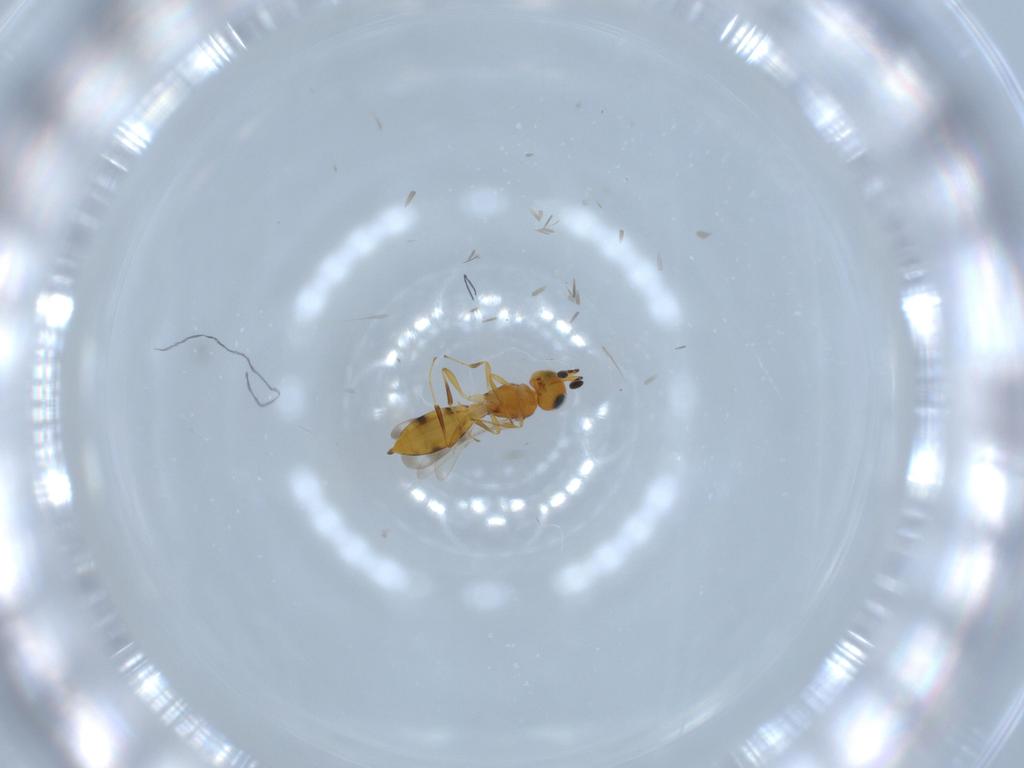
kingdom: Animalia
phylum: Arthropoda
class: Insecta
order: Hymenoptera
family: Scelionidae
